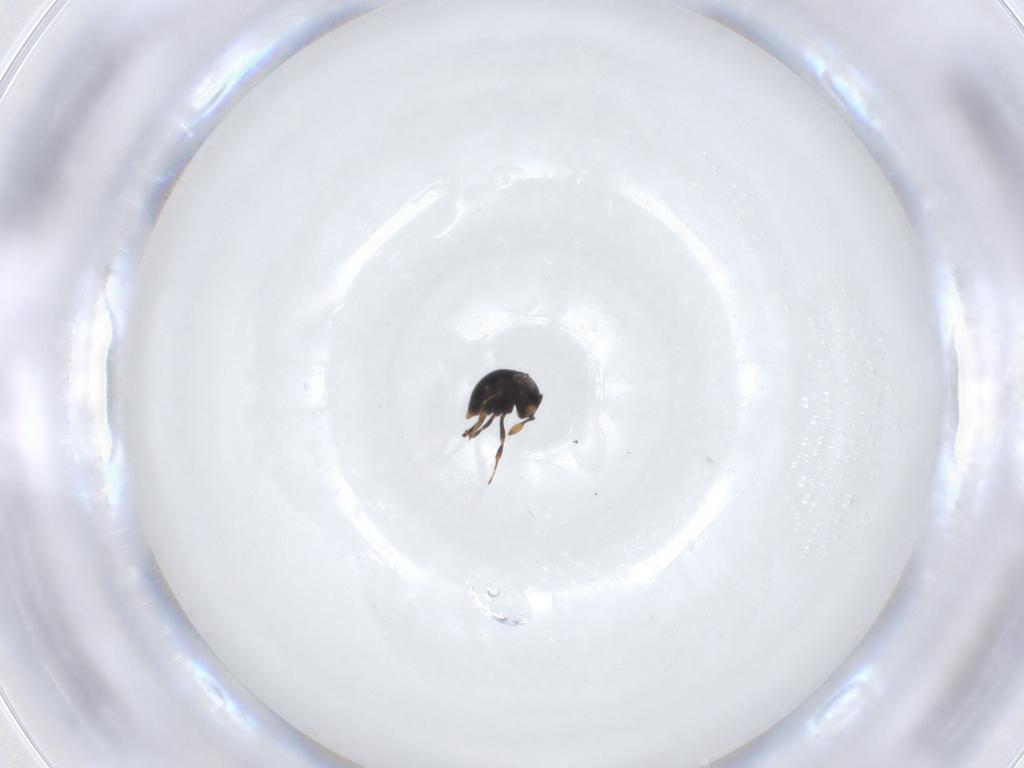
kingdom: Animalia
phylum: Arthropoda
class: Insecta
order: Hymenoptera
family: Scelionidae
